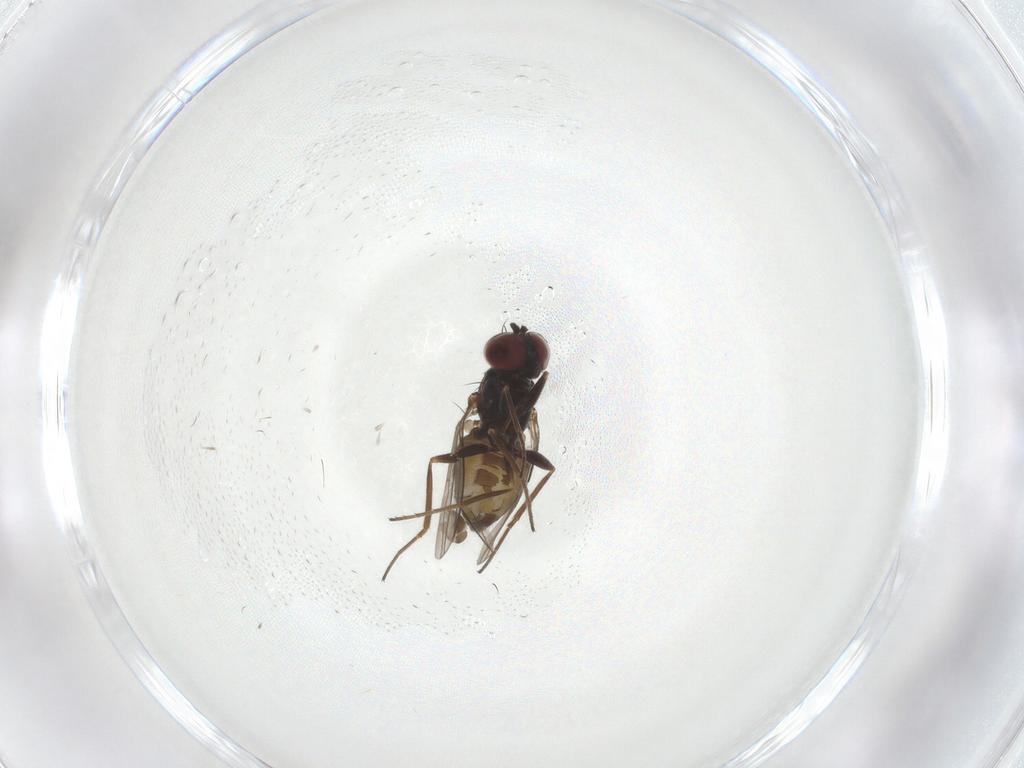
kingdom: Animalia
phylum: Arthropoda
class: Insecta
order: Diptera
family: Dolichopodidae
